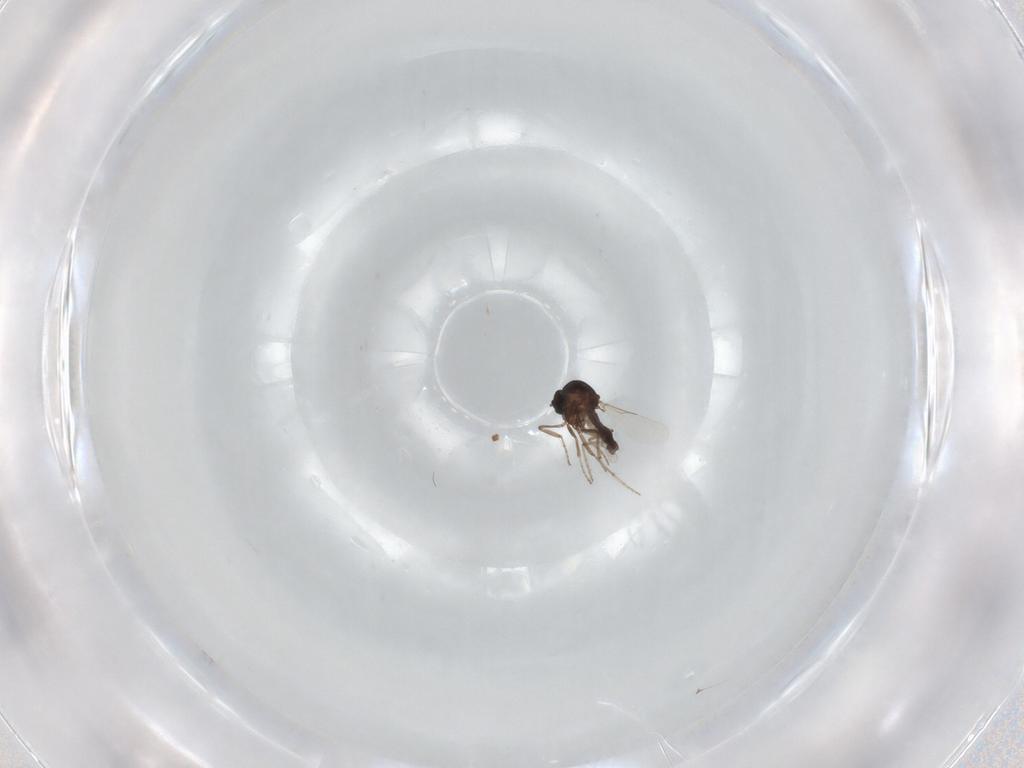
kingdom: Animalia
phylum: Arthropoda
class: Insecta
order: Diptera
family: Ceratopogonidae
